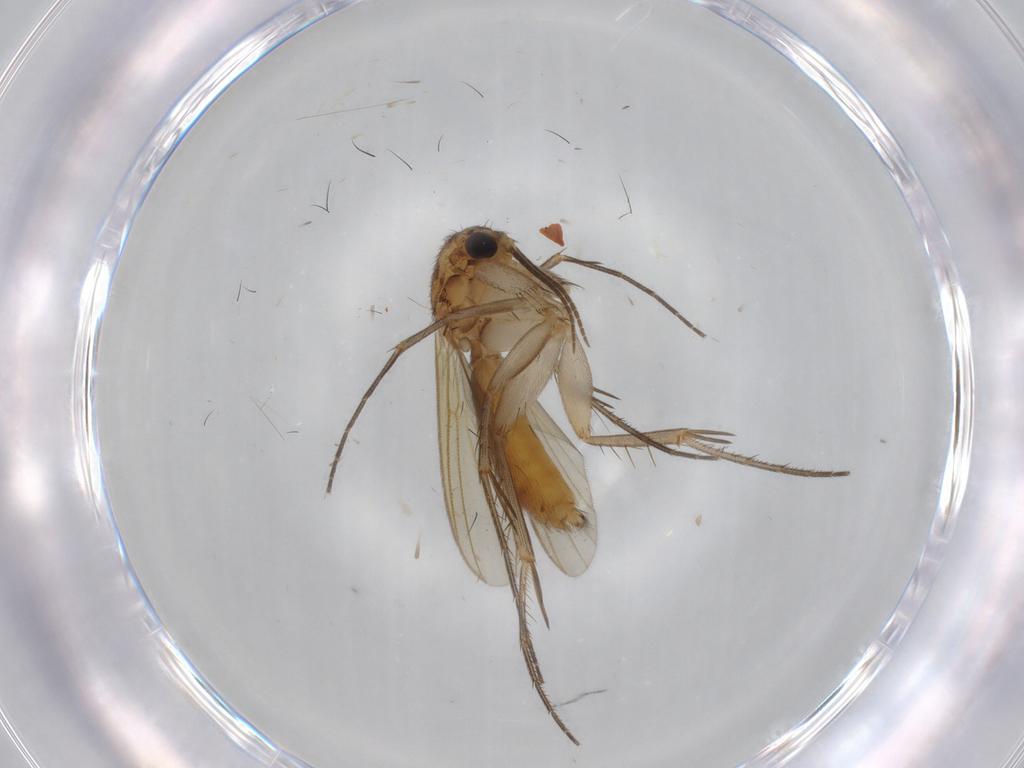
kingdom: Animalia
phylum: Arthropoda
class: Insecta
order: Diptera
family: Mycetophilidae
